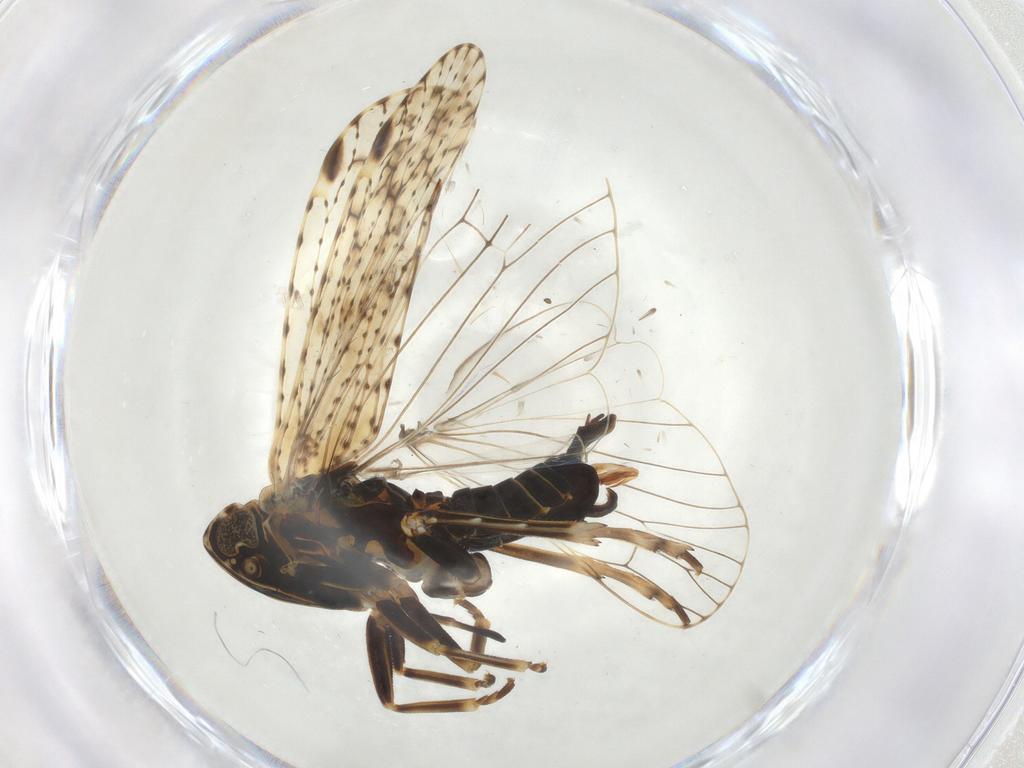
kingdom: Animalia
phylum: Arthropoda
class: Insecta
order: Hemiptera
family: Cixiidae
